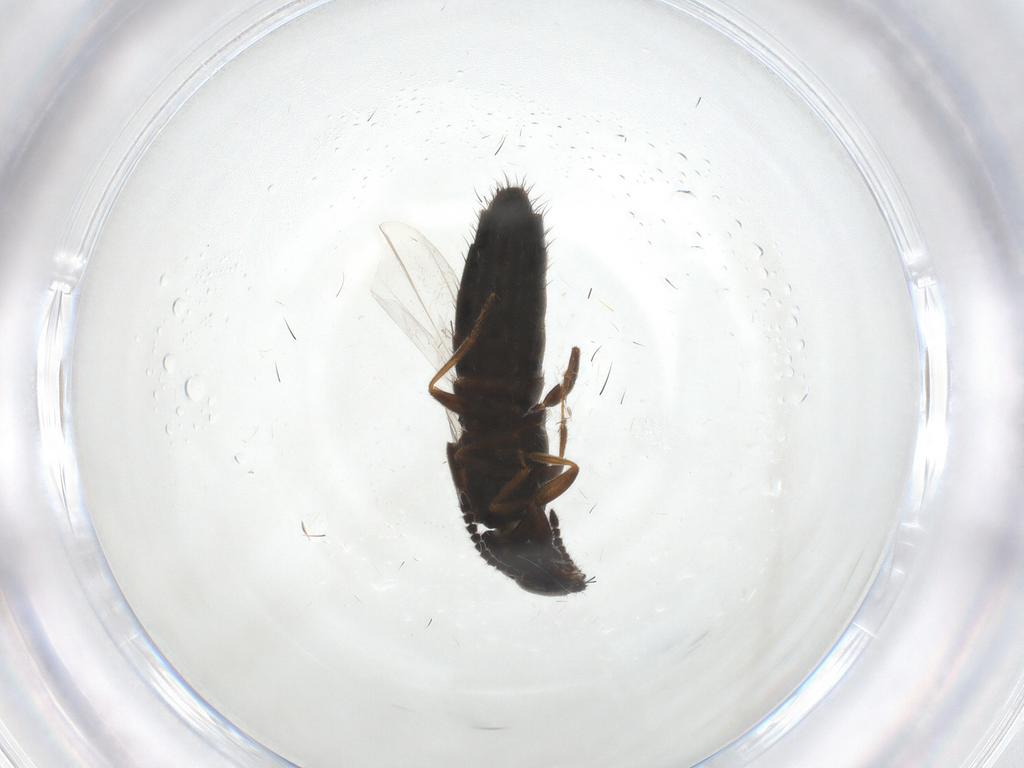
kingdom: Animalia
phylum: Arthropoda
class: Insecta
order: Coleoptera
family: Staphylinidae
